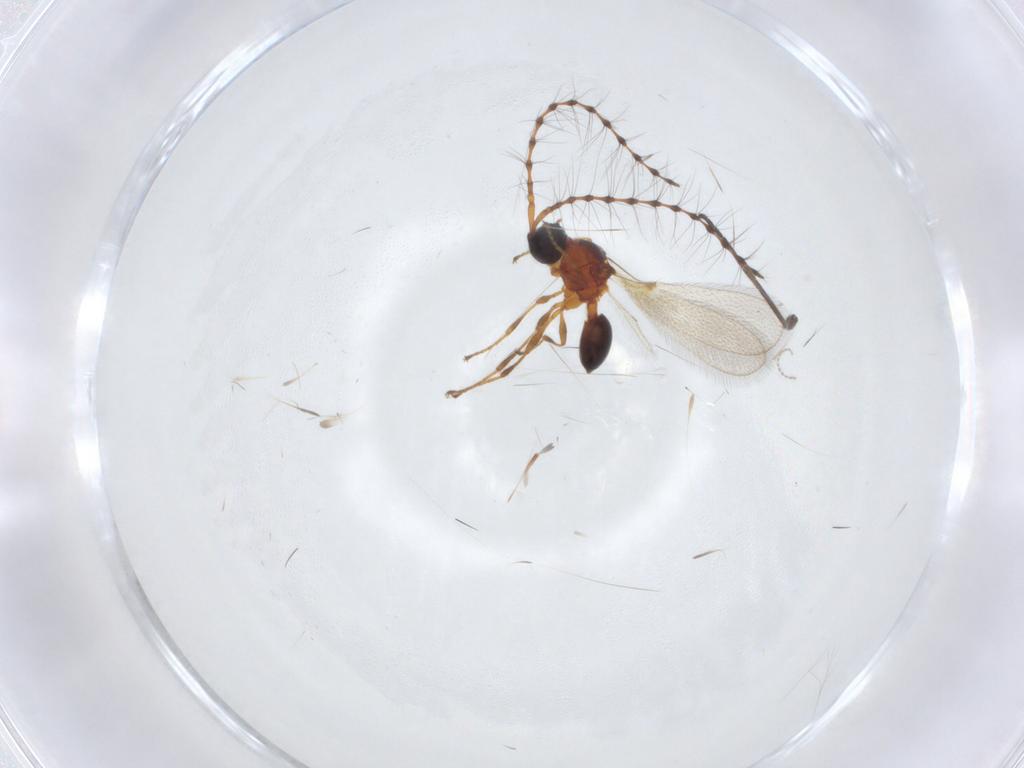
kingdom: Animalia
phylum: Arthropoda
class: Insecta
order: Hymenoptera
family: Diapriidae
